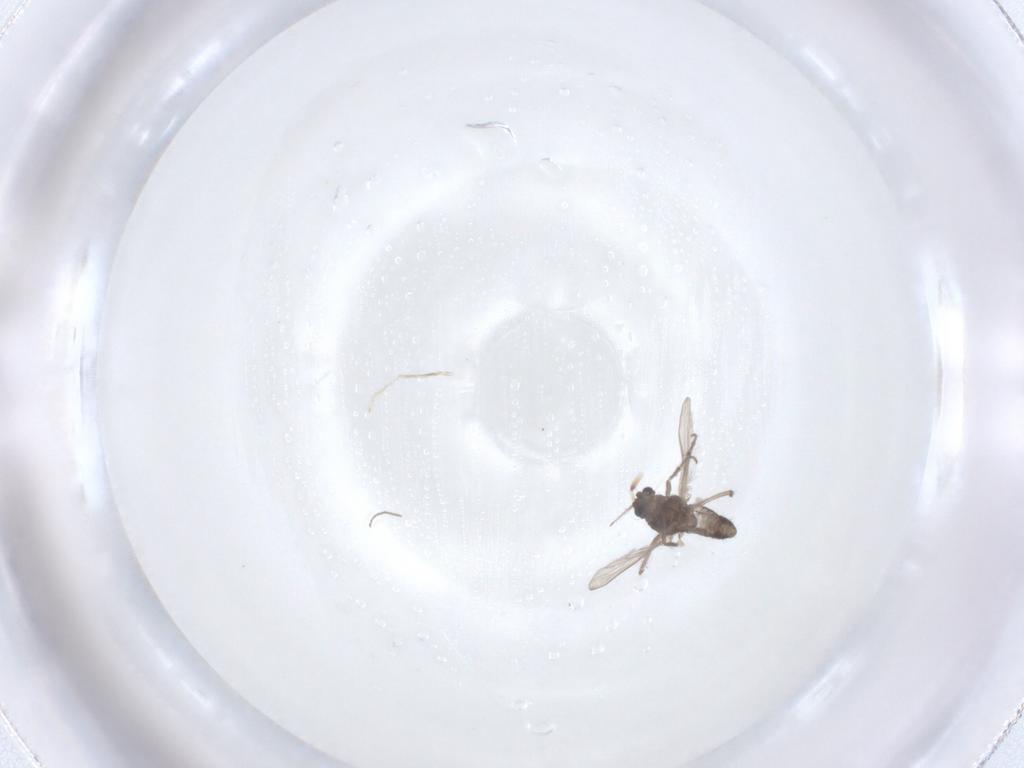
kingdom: Animalia
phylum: Arthropoda
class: Insecta
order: Diptera
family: Chironomidae
